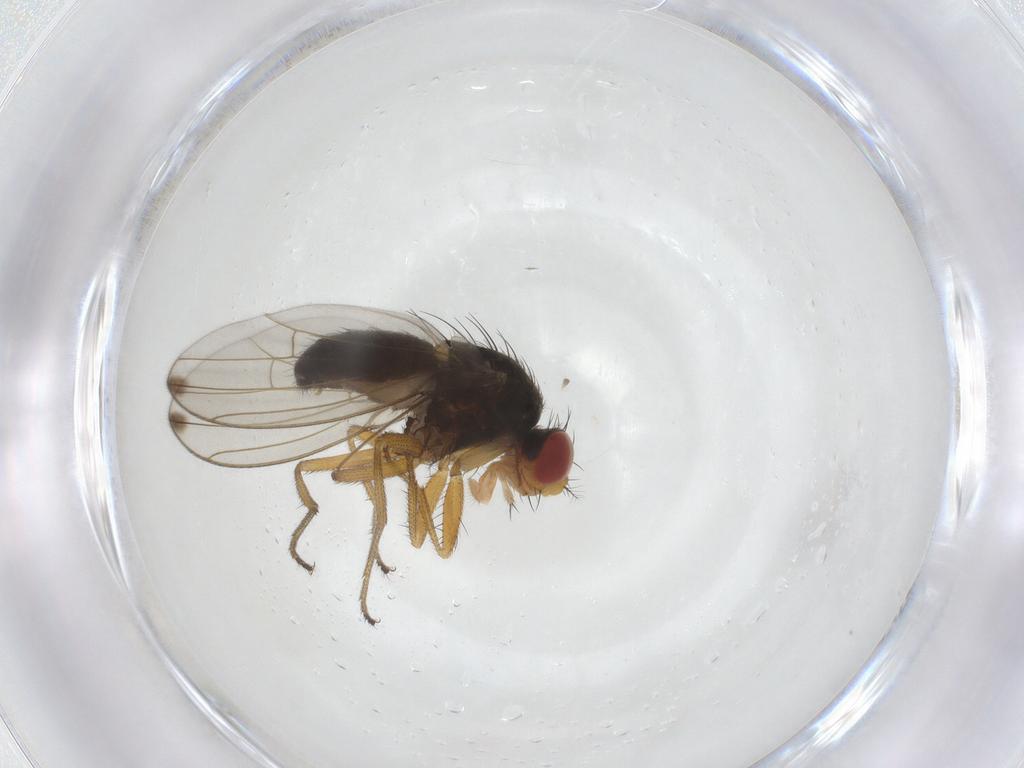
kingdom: Animalia
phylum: Arthropoda
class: Insecta
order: Diptera
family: Drosophilidae
